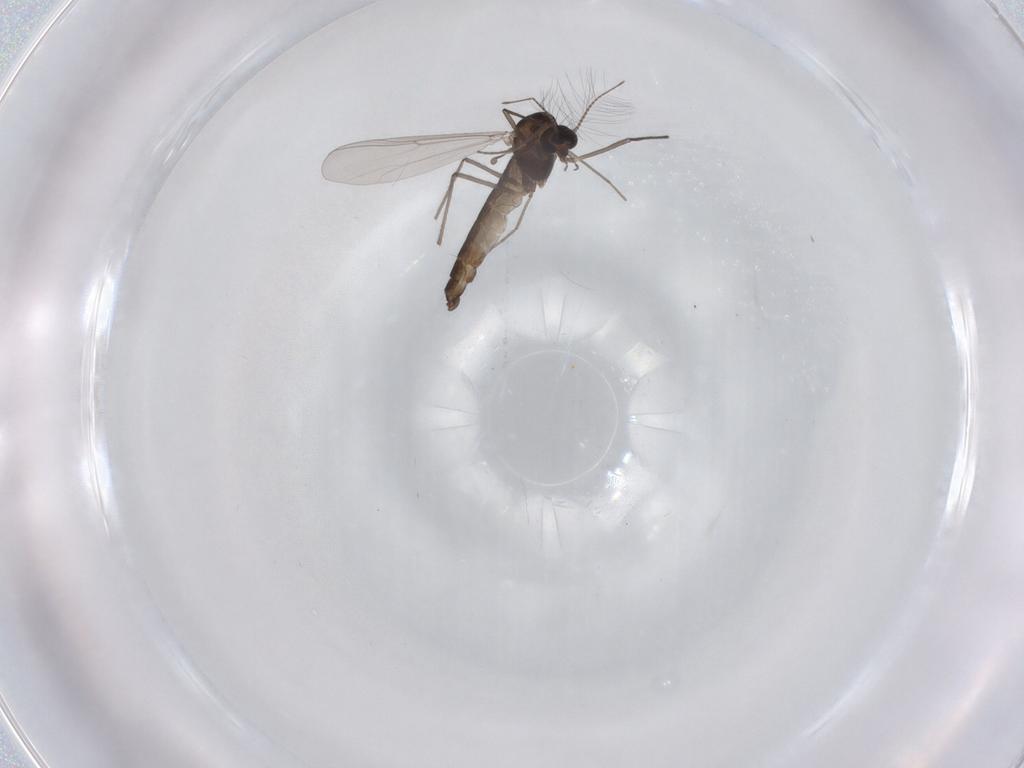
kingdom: Animalia
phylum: Arthropoda
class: Insecta
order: Diptera
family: Chironomidae
